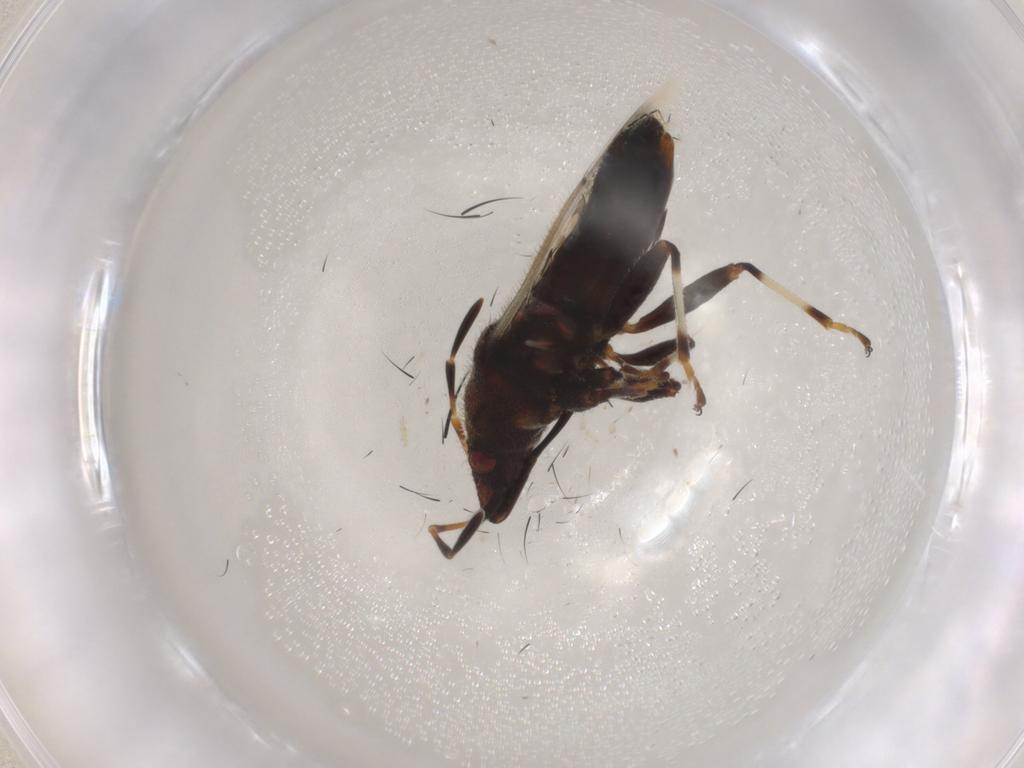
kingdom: Animalia
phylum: Arthropoda
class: Insecta
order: Hemiptera
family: Oxycarenidae
